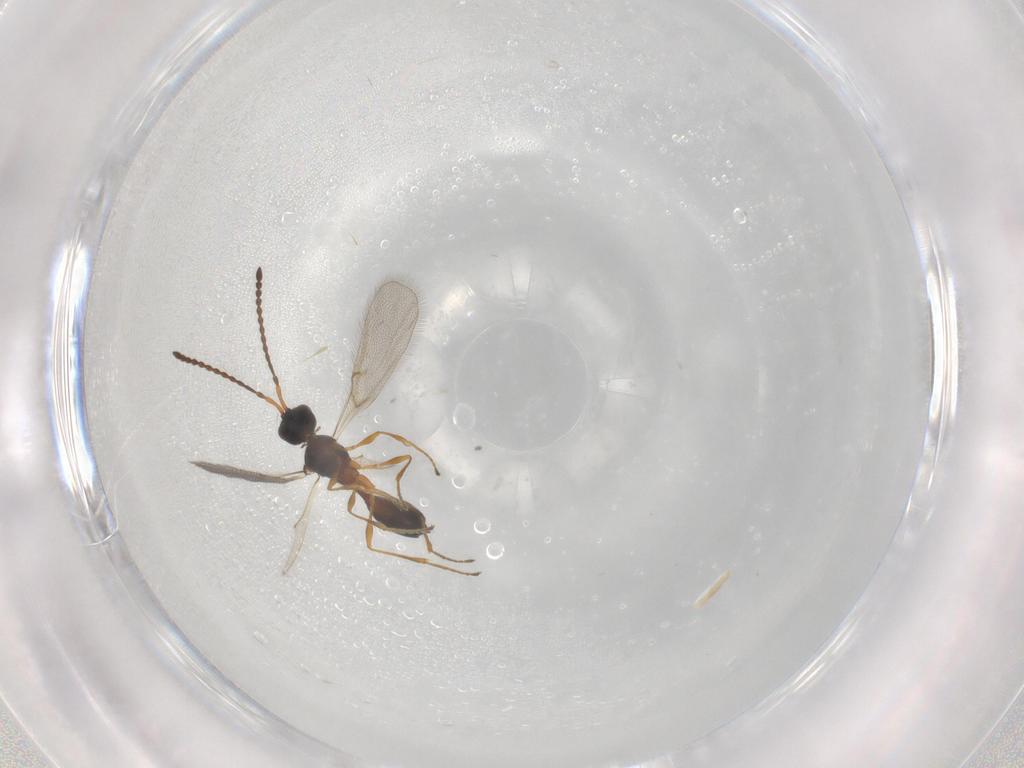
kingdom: Animalia
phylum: Arthropoda
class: Insecta
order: Hymenoptera
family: Diapriidae
